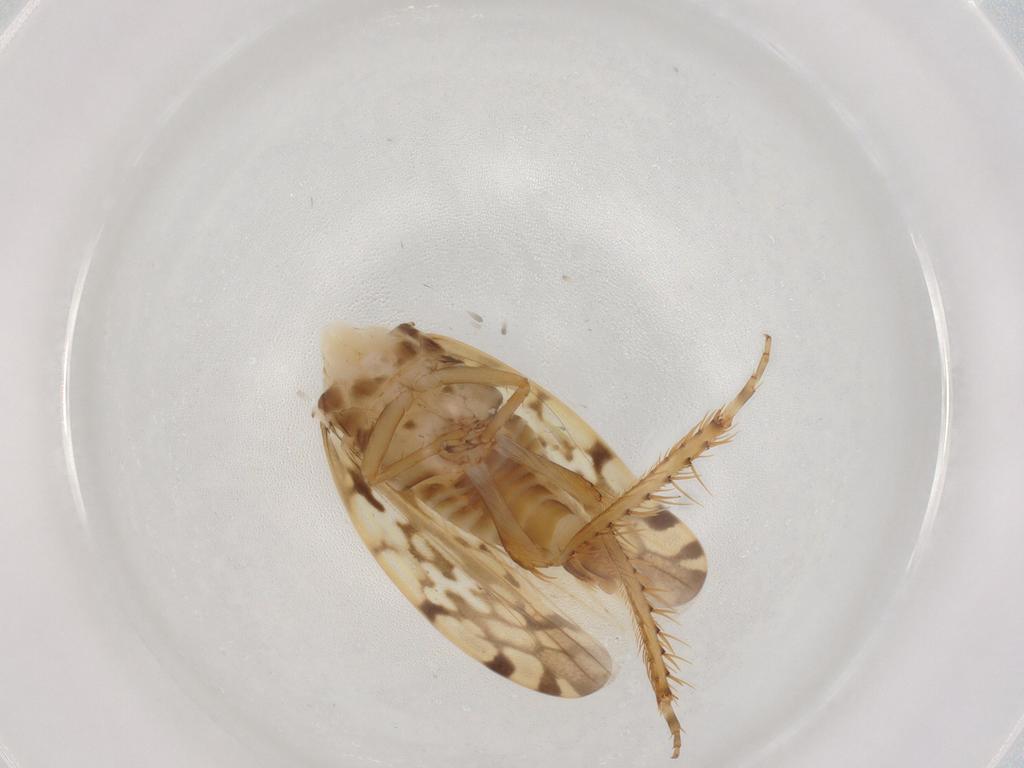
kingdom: Animalia
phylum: Arthropoda
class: Insecta
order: Hemiptera
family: Cicadellidae
